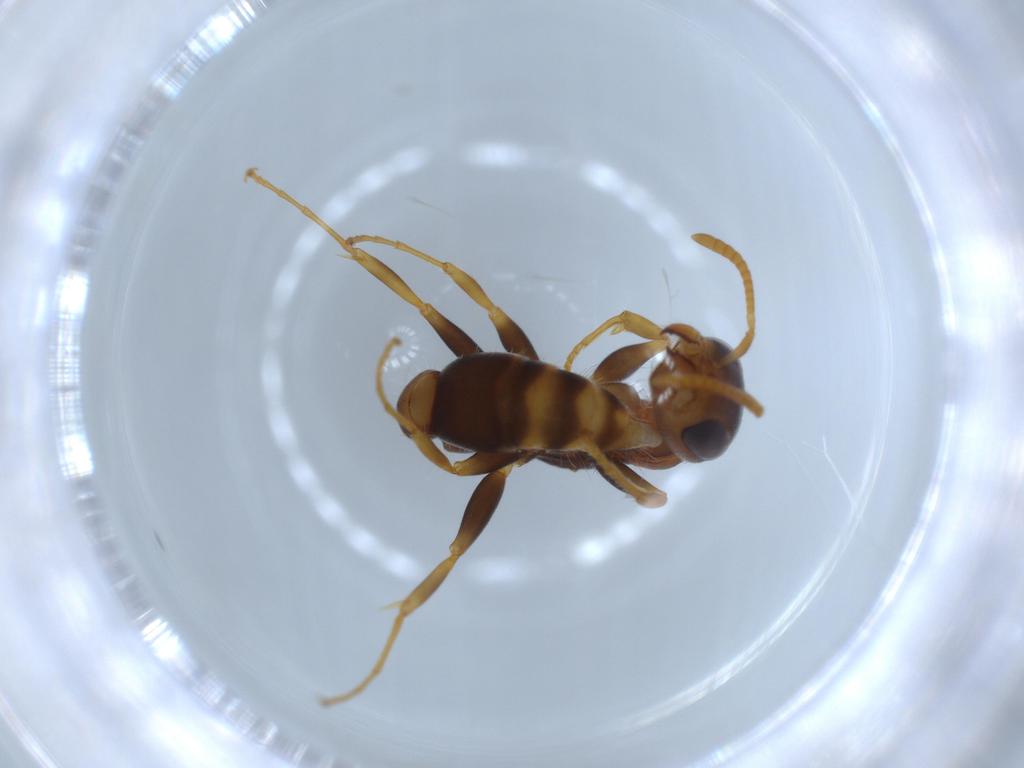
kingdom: Animalia
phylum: Arthropoda
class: Insecta
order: Hymenoptera
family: Formicidae
